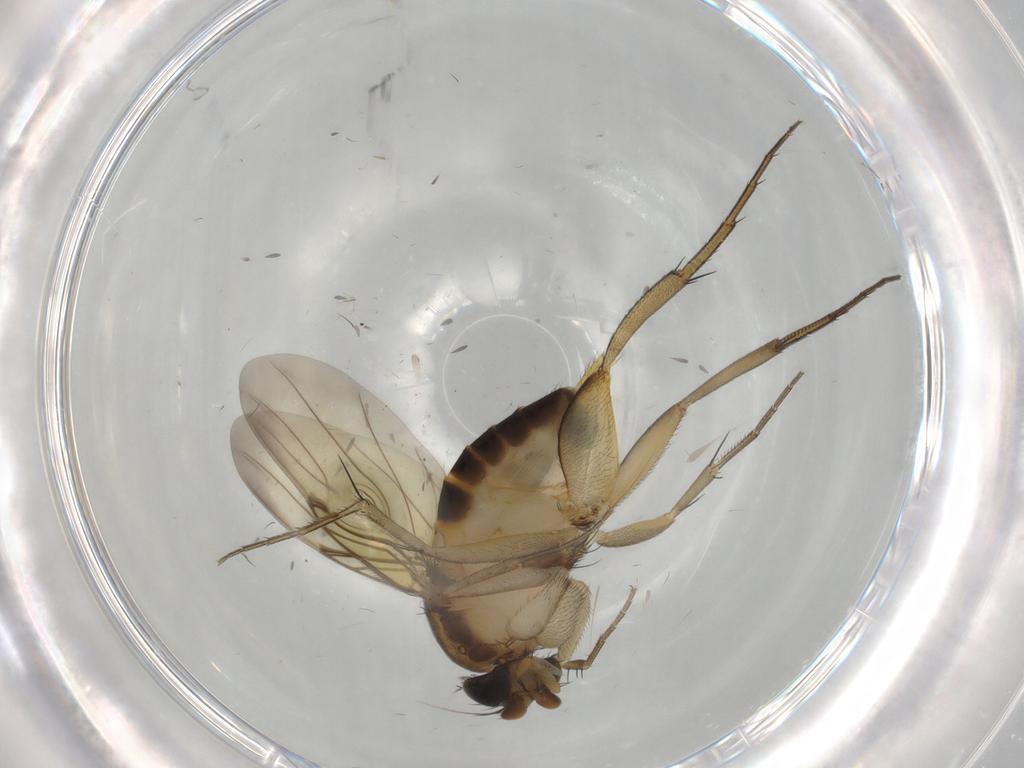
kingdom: Animalia
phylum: Arthropoda
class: Insecta
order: Diptera
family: Phoridae
